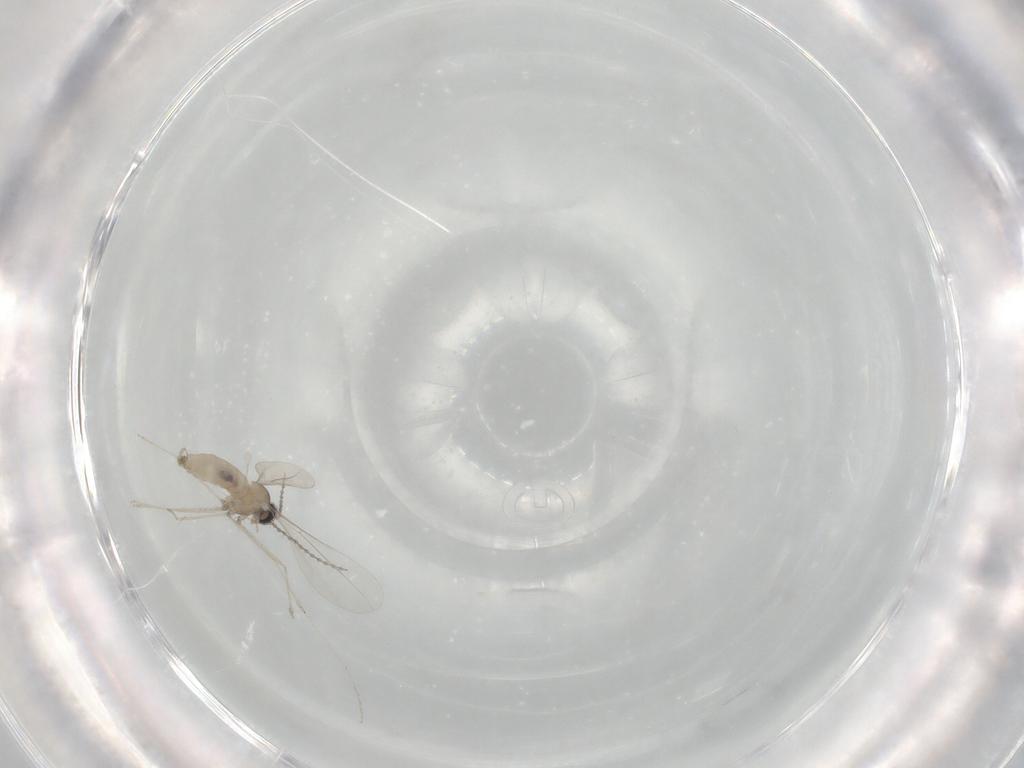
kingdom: Animalia
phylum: Arthropoda
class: Insecta
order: Diptera
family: Cecidomyiidae
